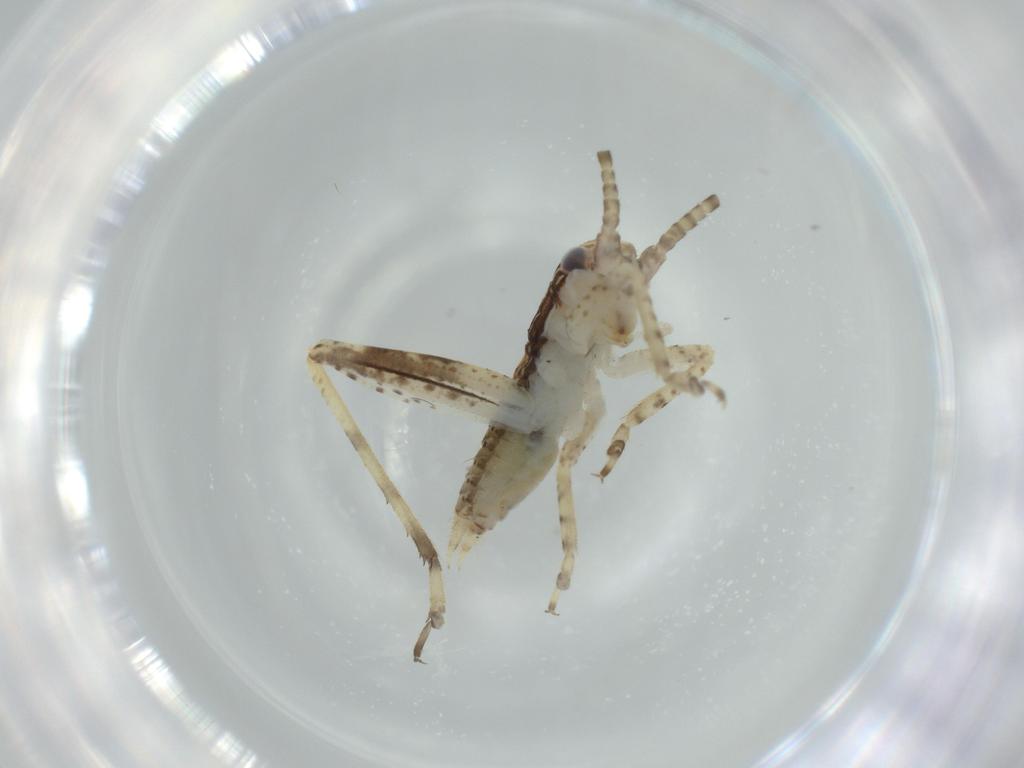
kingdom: Animalia
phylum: Arthropoda
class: Insecta
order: Orthoptera
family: Gryllidae
